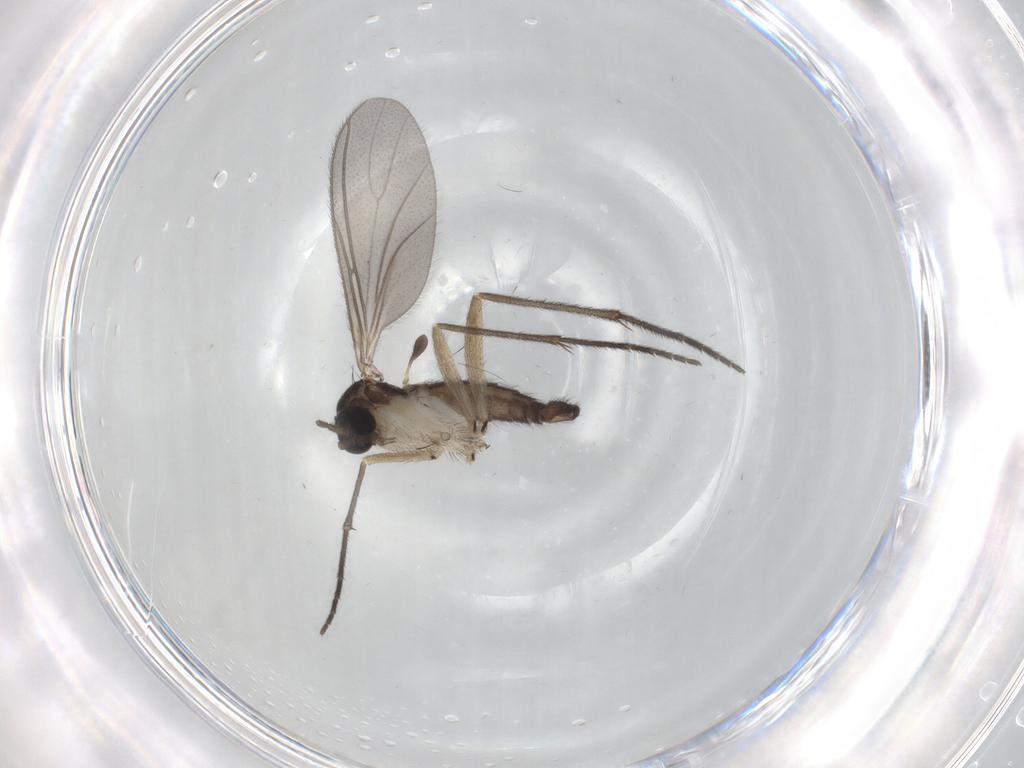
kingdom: Animalia
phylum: Arthropoda
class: Insecta
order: Diptera
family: Sciaridae
